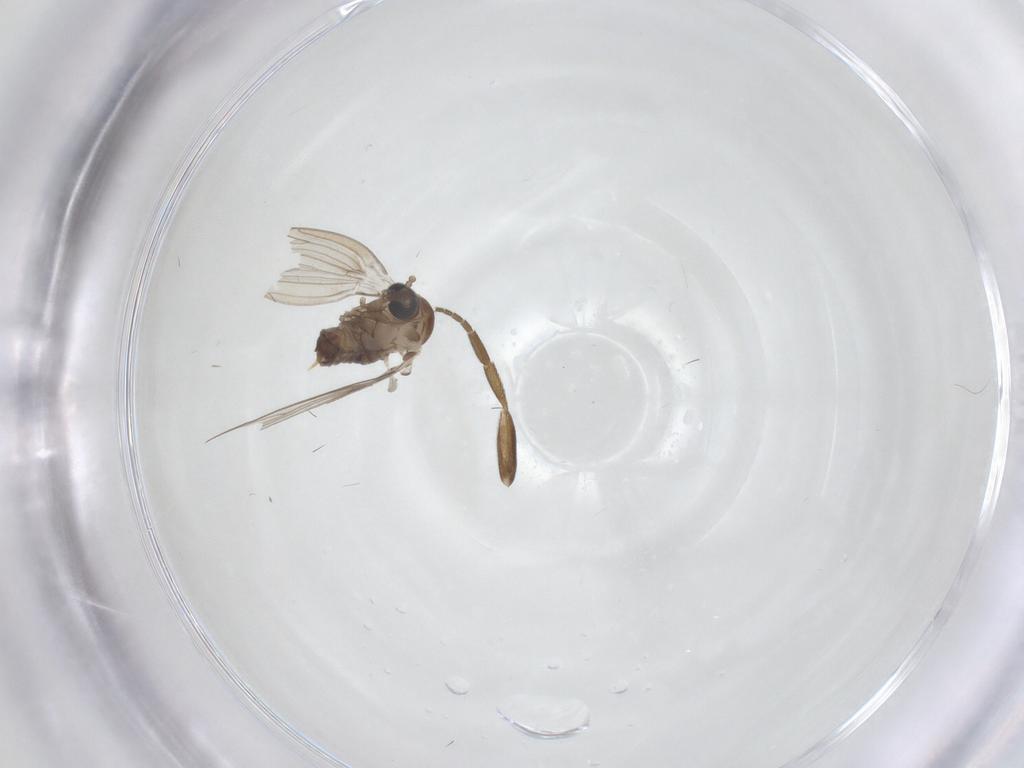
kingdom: Animalia
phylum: Arthropoda
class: Insecta
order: Diptera
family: Psychodidae
